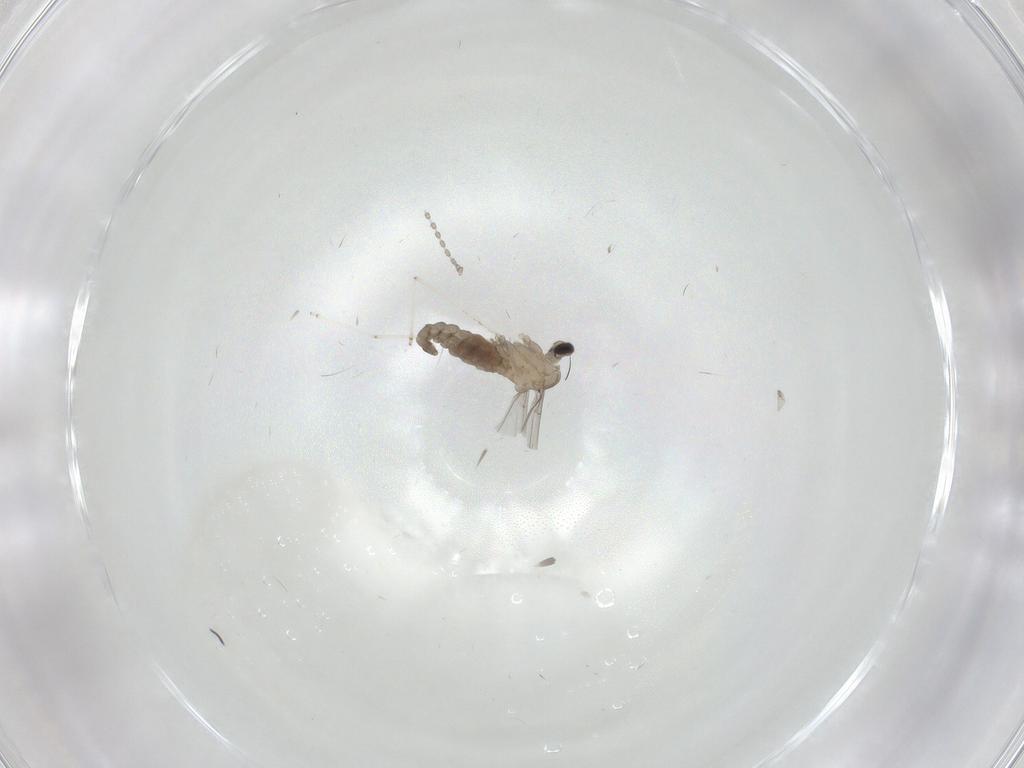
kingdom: Animalia
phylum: Arthropoda
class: Insecta
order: Diptera
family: Cecidomyiidae
